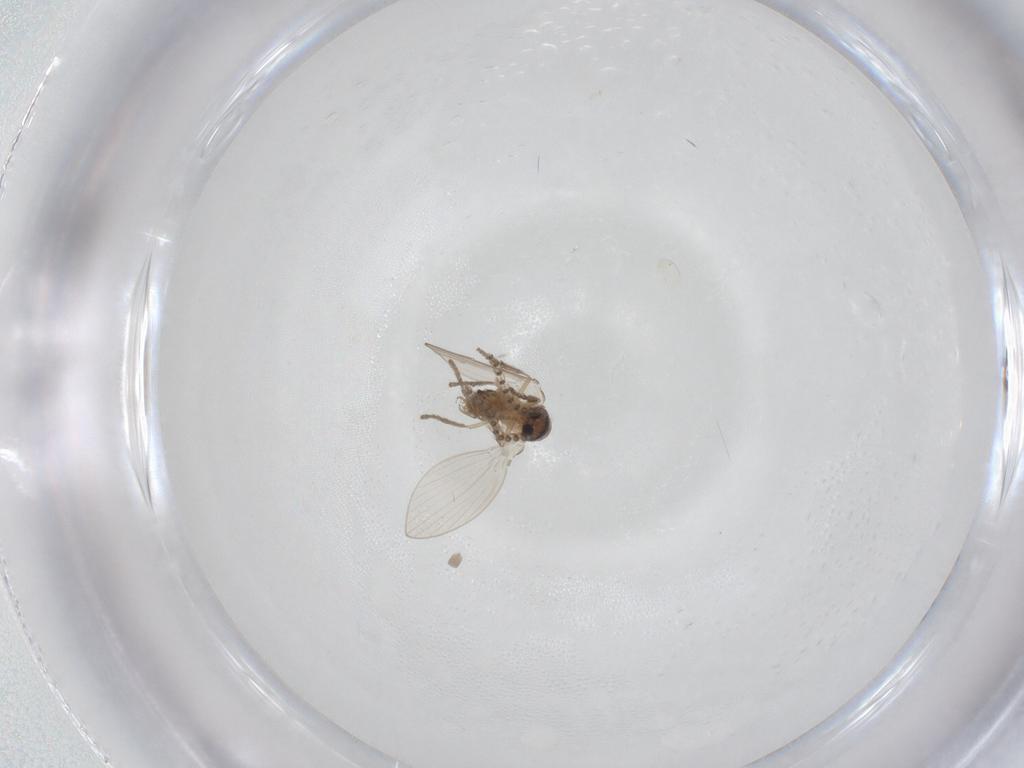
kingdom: Animalia
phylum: Arthropoda
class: Insecta
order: Diptera
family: Psychodidae
